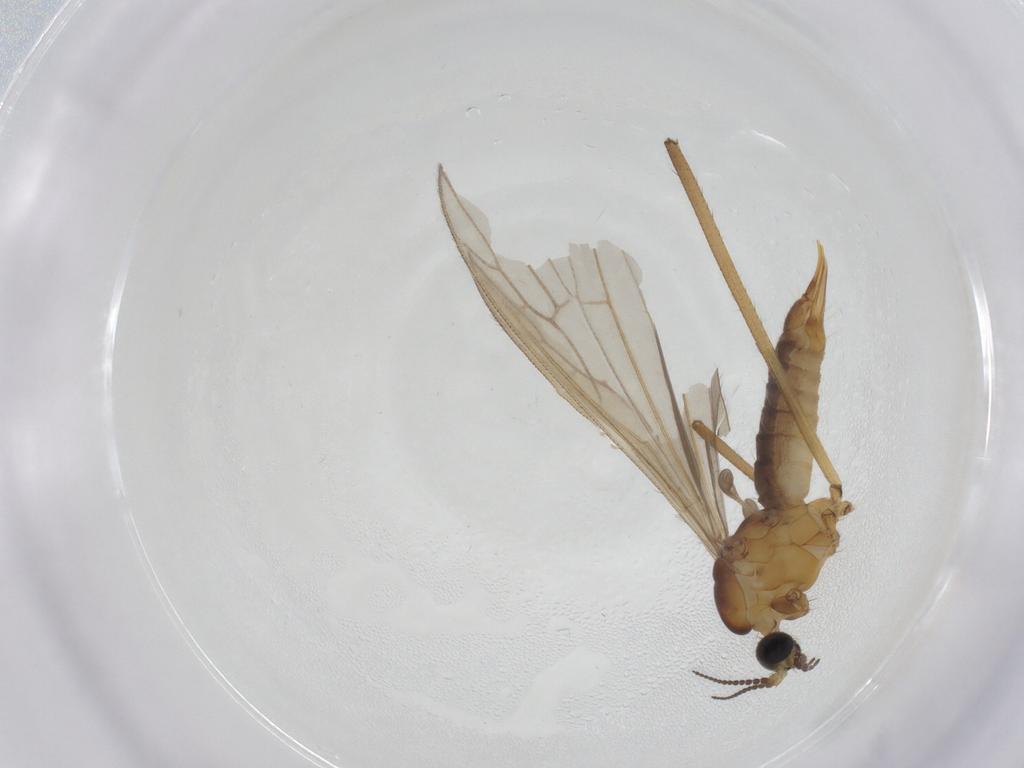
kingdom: Animalia
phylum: Arthropoda
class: Insecta
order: Diptera
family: Limoniidae
